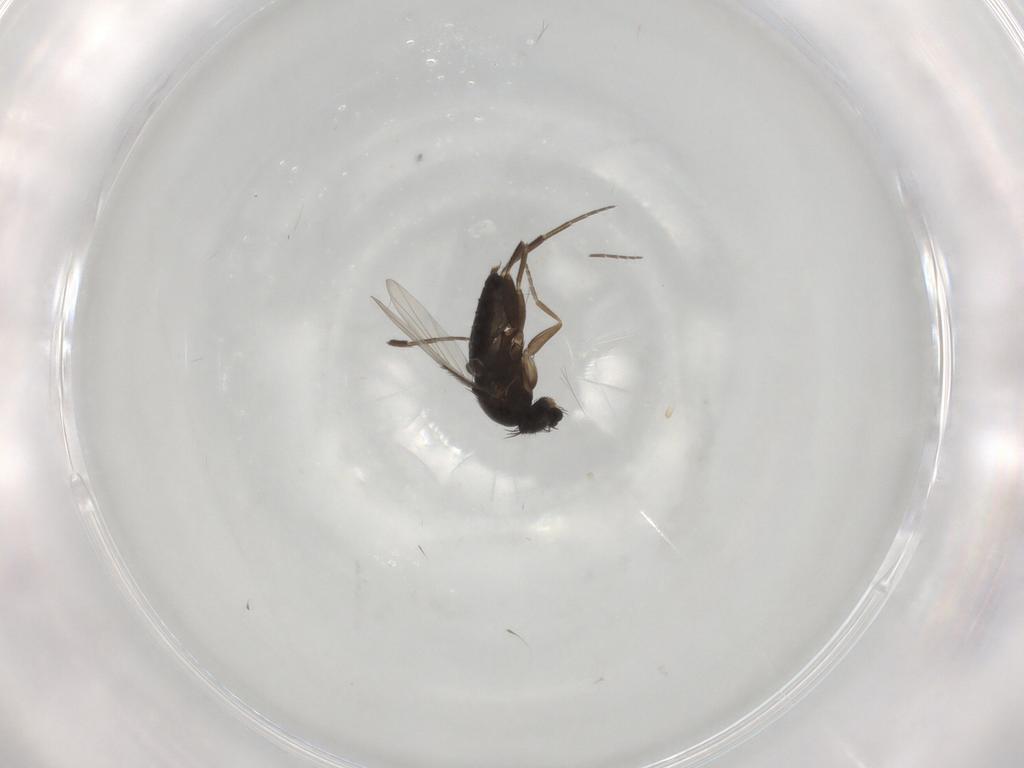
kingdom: Animalia
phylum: Arthropoda
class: Insecta
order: Diptera
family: Phoridae
